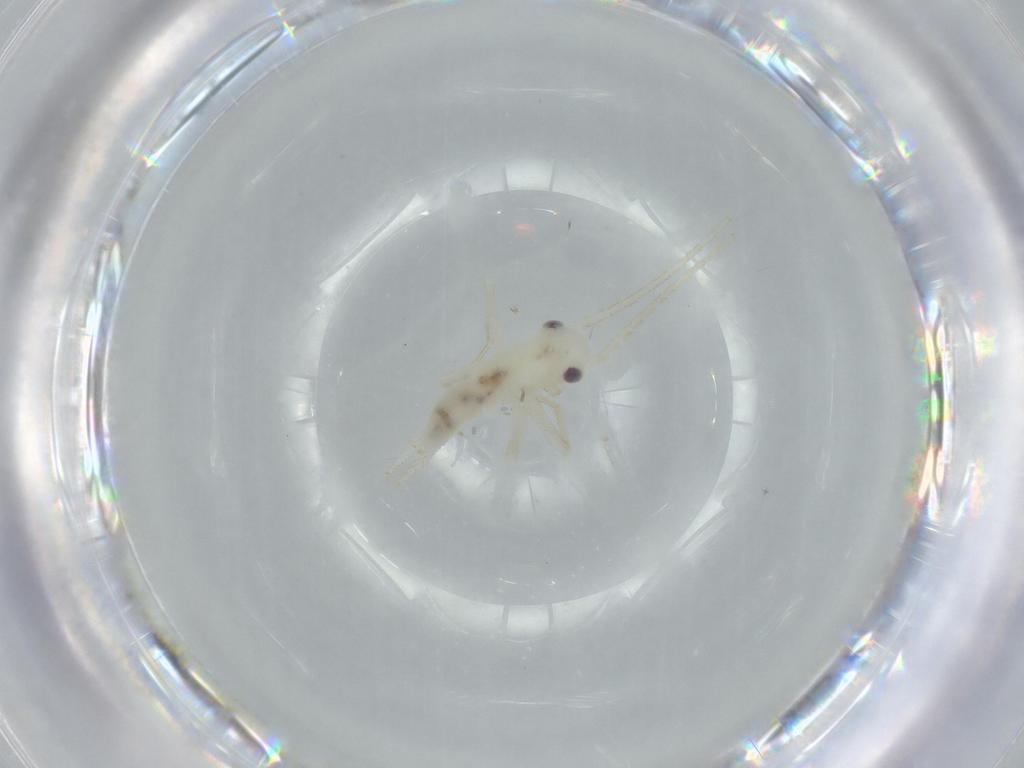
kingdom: Animalia
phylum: Arthropoda
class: Insecta
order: Orthoptera
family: Trigonidiidae
